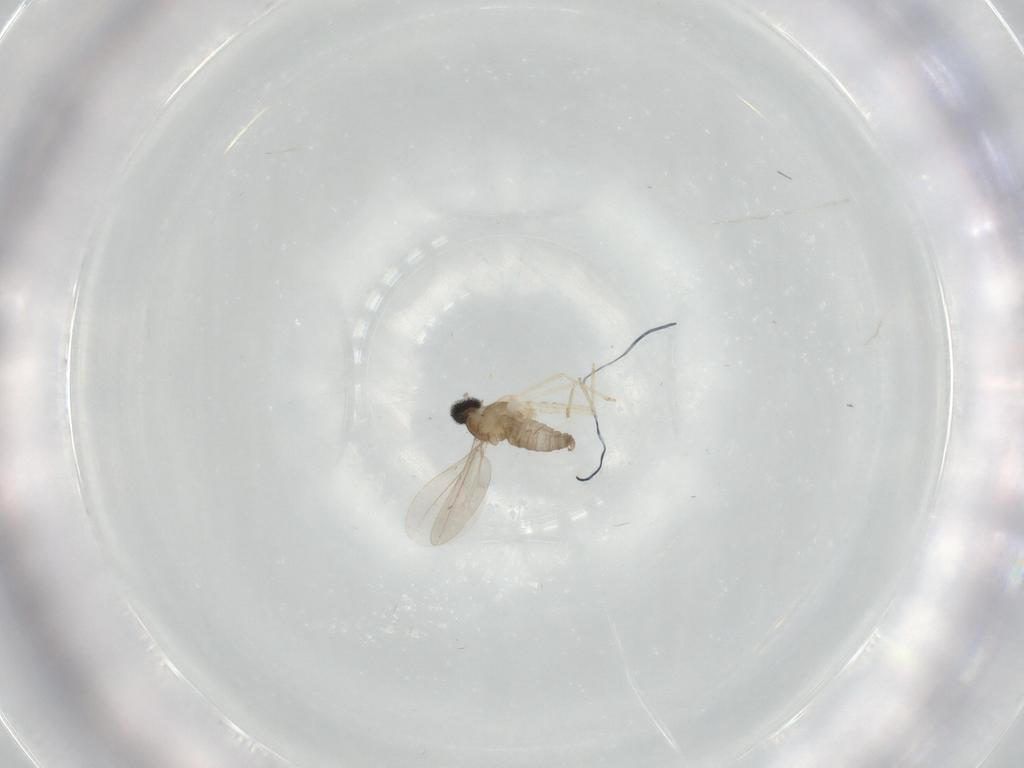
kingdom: Animalia
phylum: Arthropoda
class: Insecta
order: Diptera
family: Cecidomyiidae
